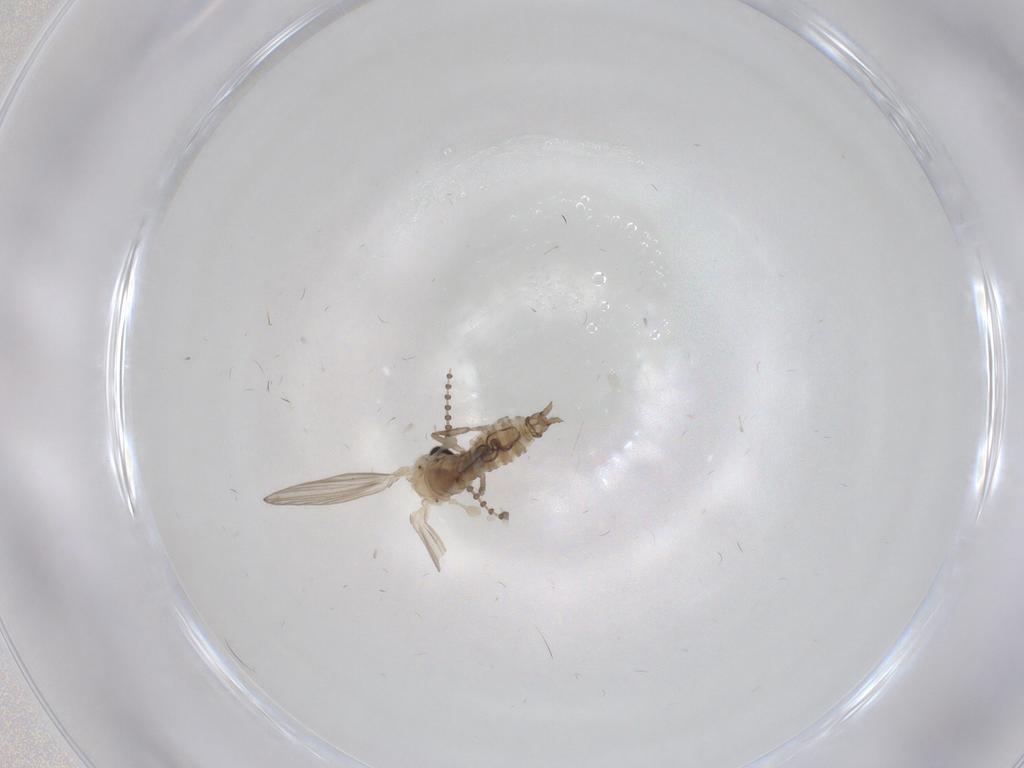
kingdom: Animalia
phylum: Arthropoda
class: Insecta
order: Diptera
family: Psychodidae
